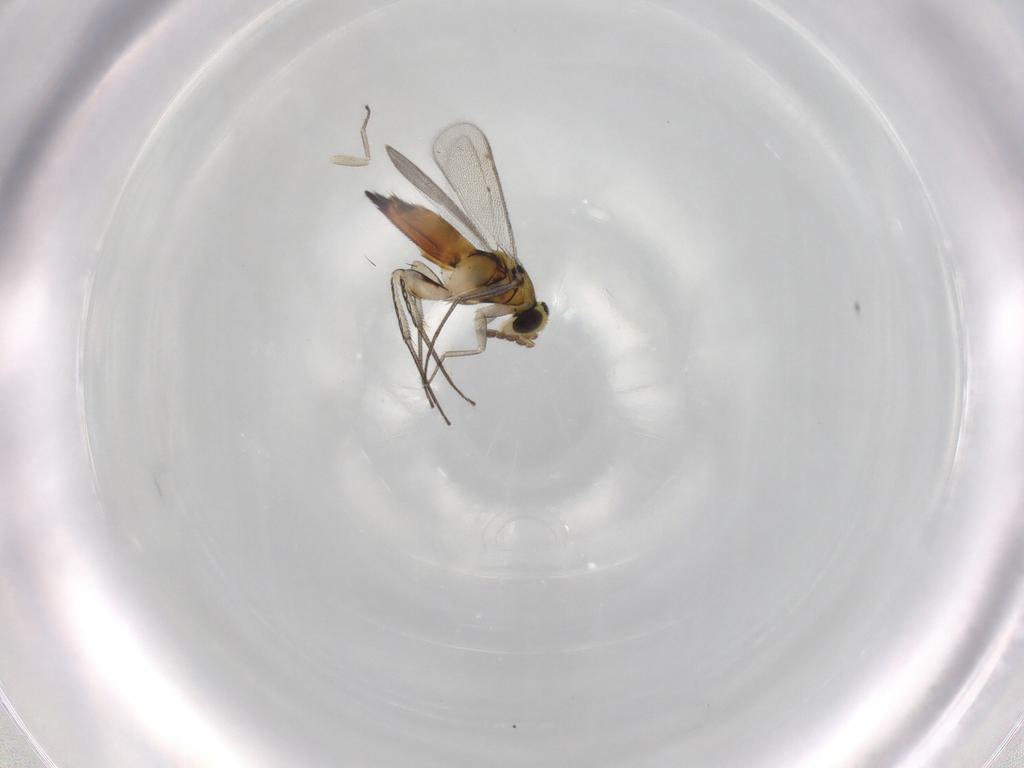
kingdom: Animalia
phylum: Arthropoda
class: Insecta
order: Hymenoptera
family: Eulophidae
